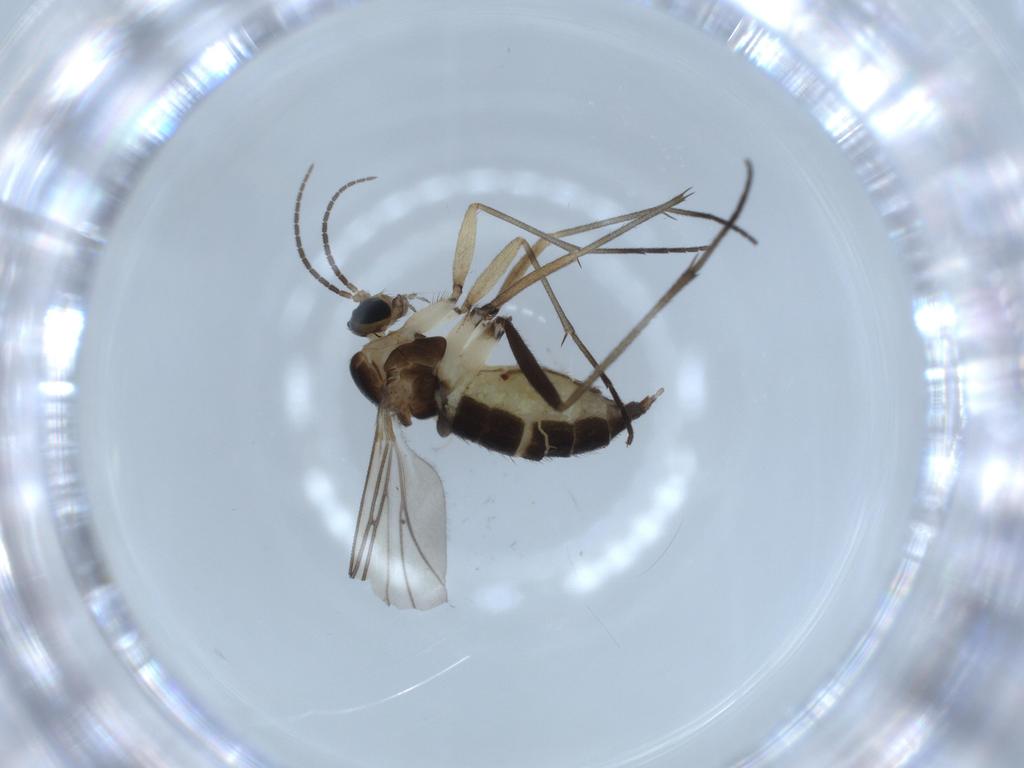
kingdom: Animalia
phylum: Arthropoda
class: Insecta
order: Diptera
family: Sciaridae
